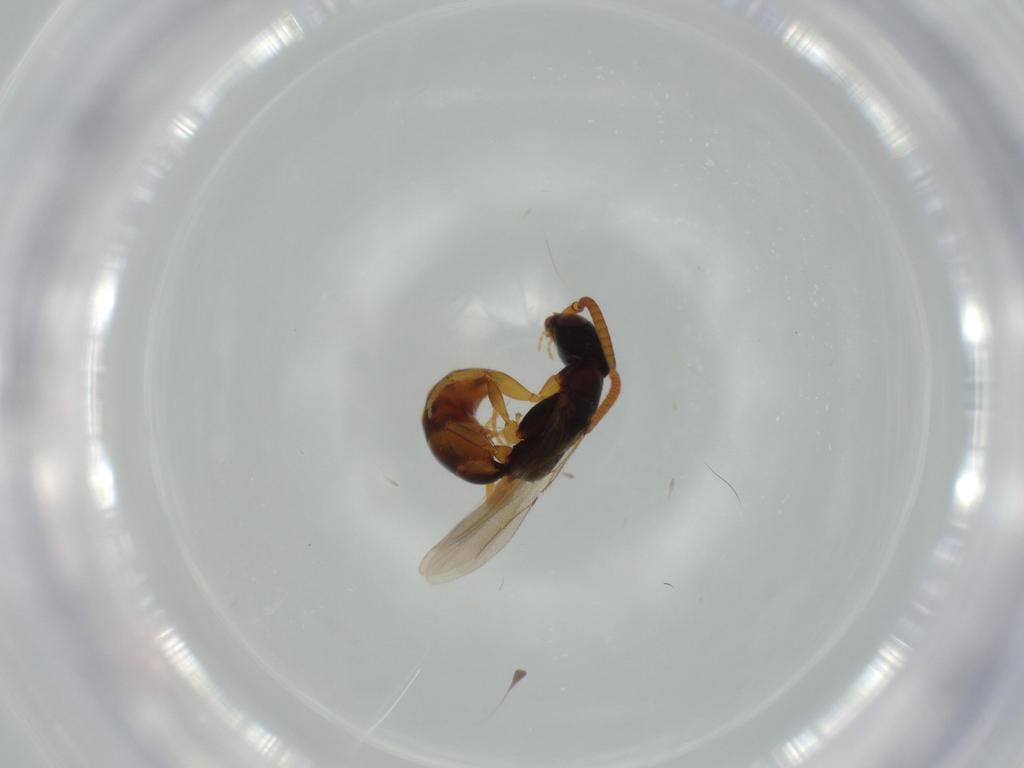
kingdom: Animalia
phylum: Arthropoda
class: Insecta
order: Hymenoptera
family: Bethylidae
